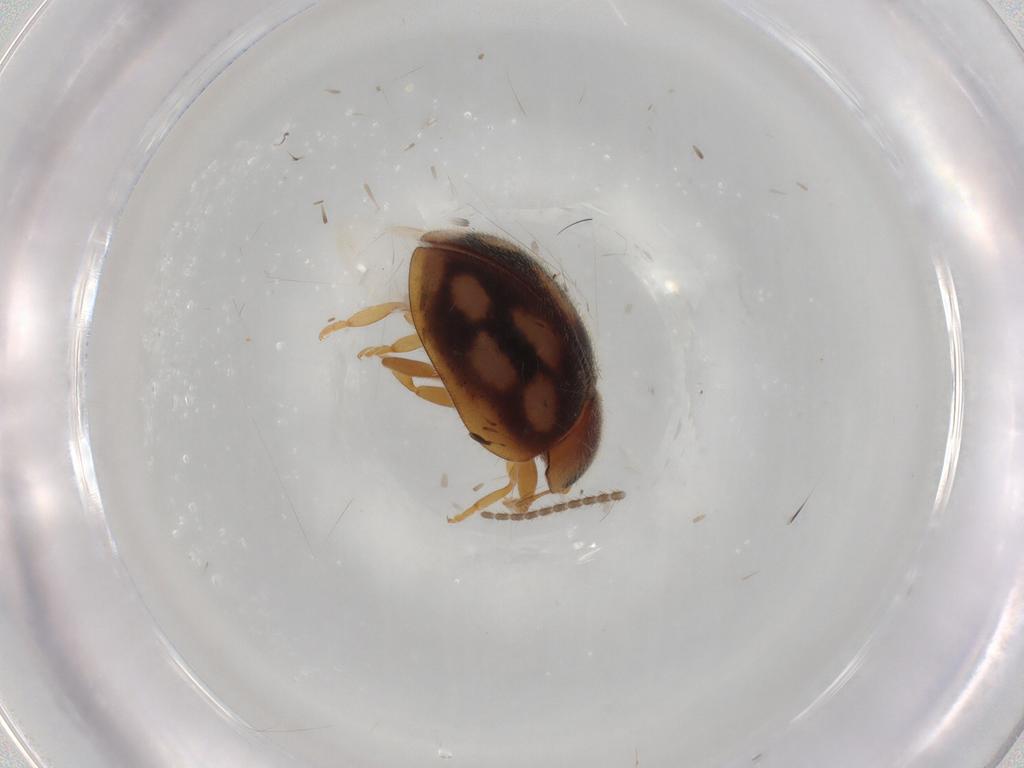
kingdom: Animalia
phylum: Arthropoda
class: Insecta
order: Coleoptera
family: Coccinellidae
